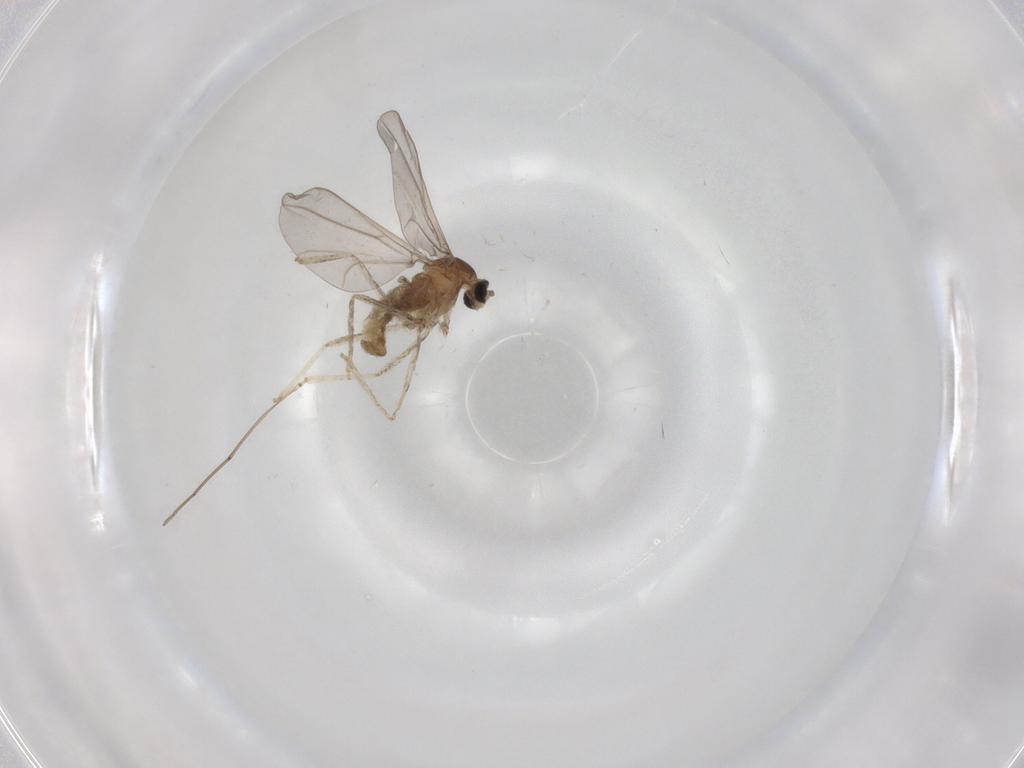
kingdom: Animalia
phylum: Arthropoda
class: Insecta
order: Diptera
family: Cecidomyiidae
